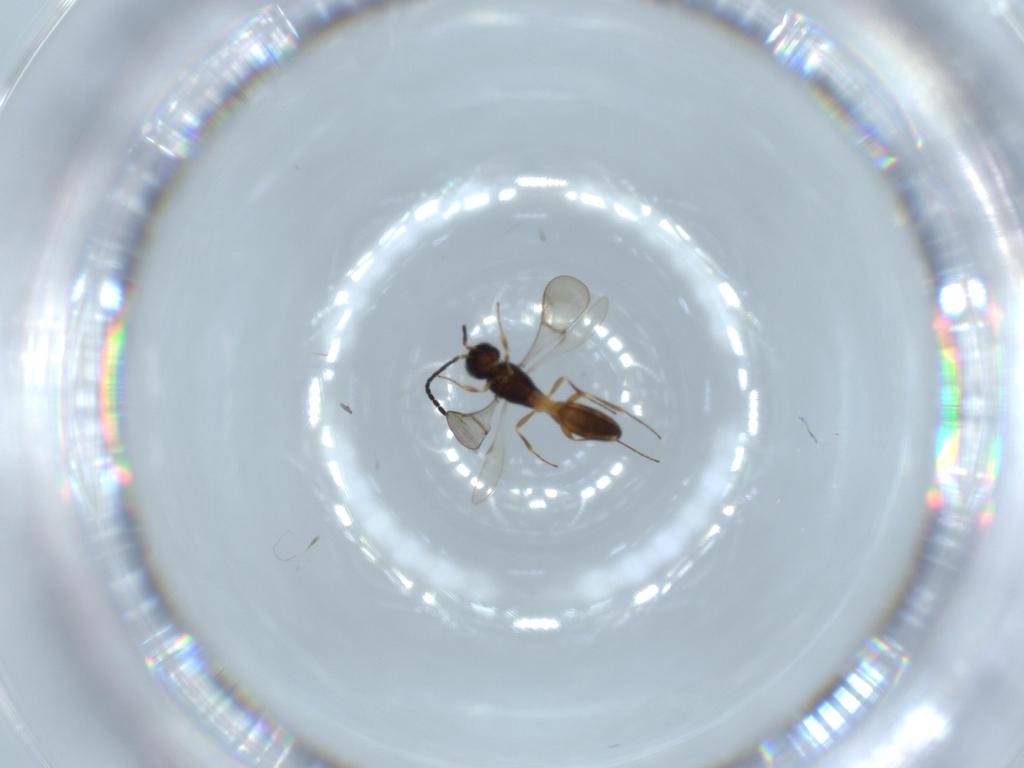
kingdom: Animalia
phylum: Arthropoda
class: Insecta
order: Hymenoptera
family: Scelionidae
